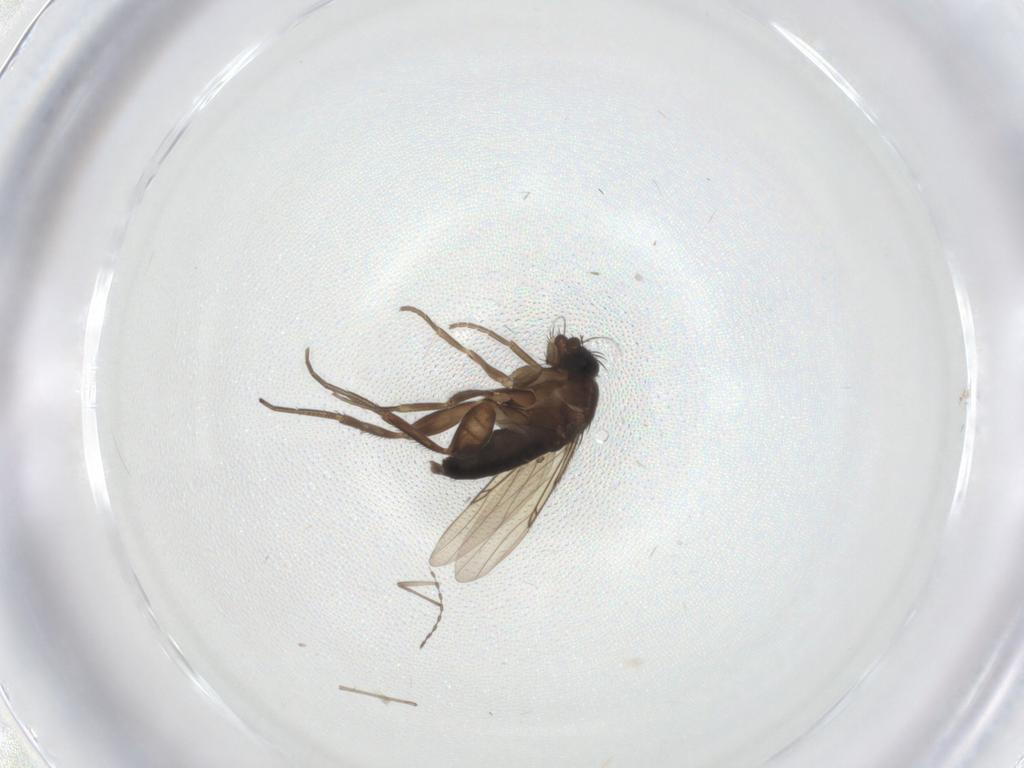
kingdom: Animalia
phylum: Arthropoda
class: Insecta
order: Diptera
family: Phoridae
